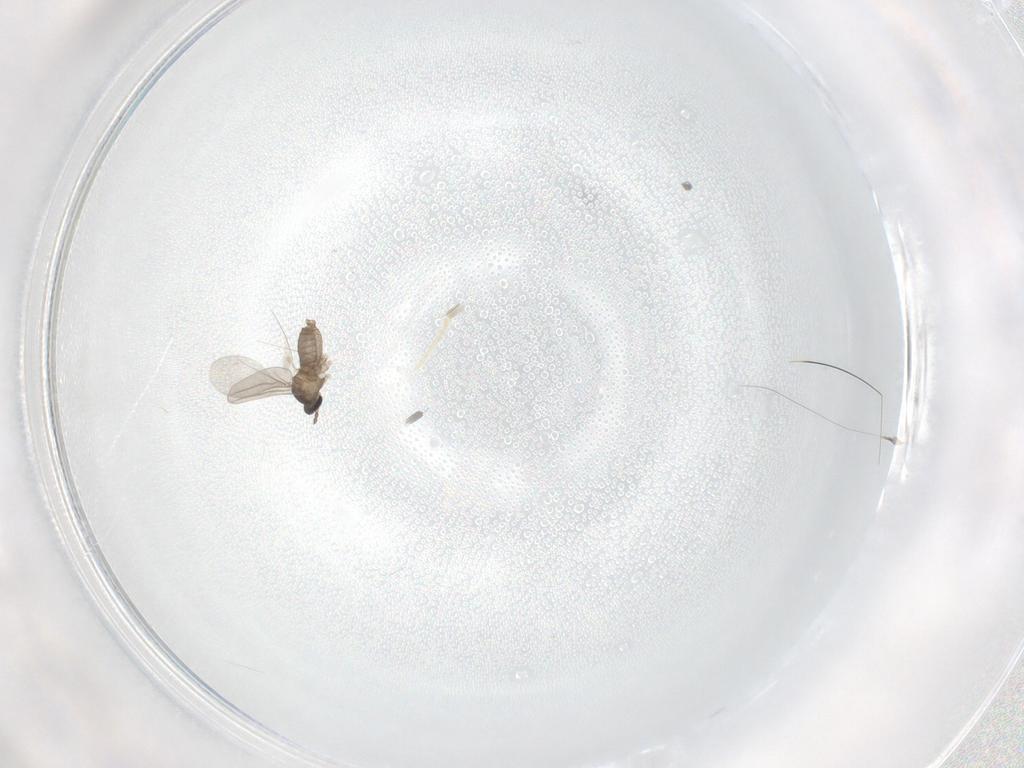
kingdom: Animalia
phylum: Arthropoda
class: Insecta
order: Diptera
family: Cecidomyiidae
